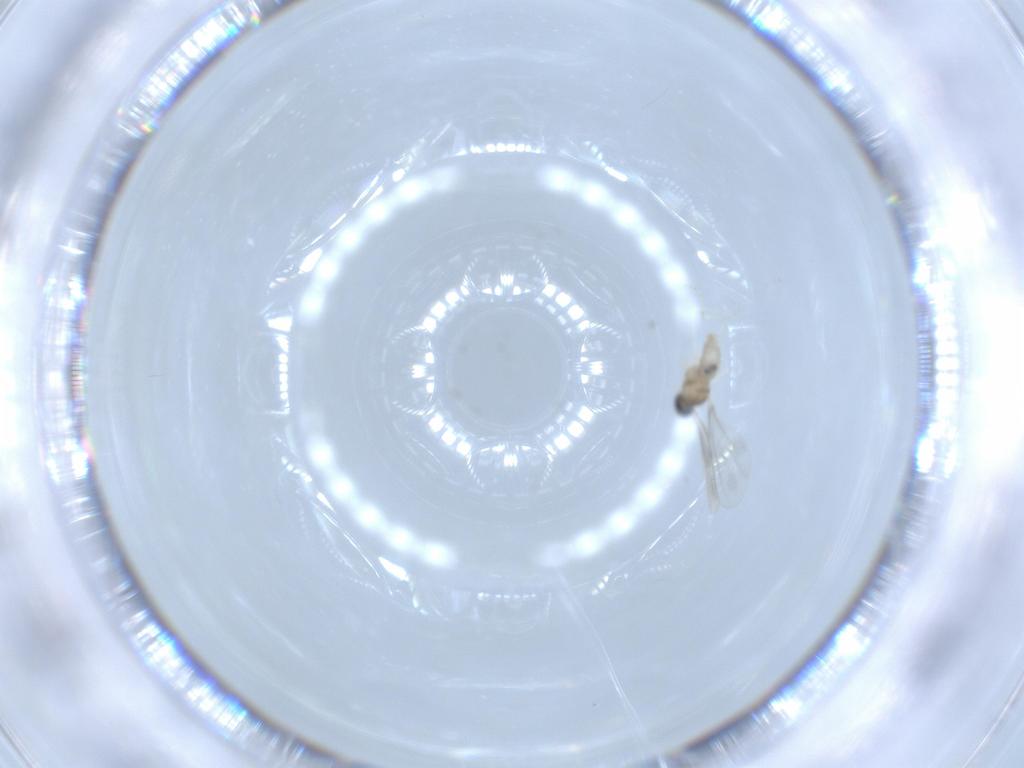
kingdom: Animalia
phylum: Arthropoda
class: Insecta
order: Diptera
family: Cecidomyiidae
